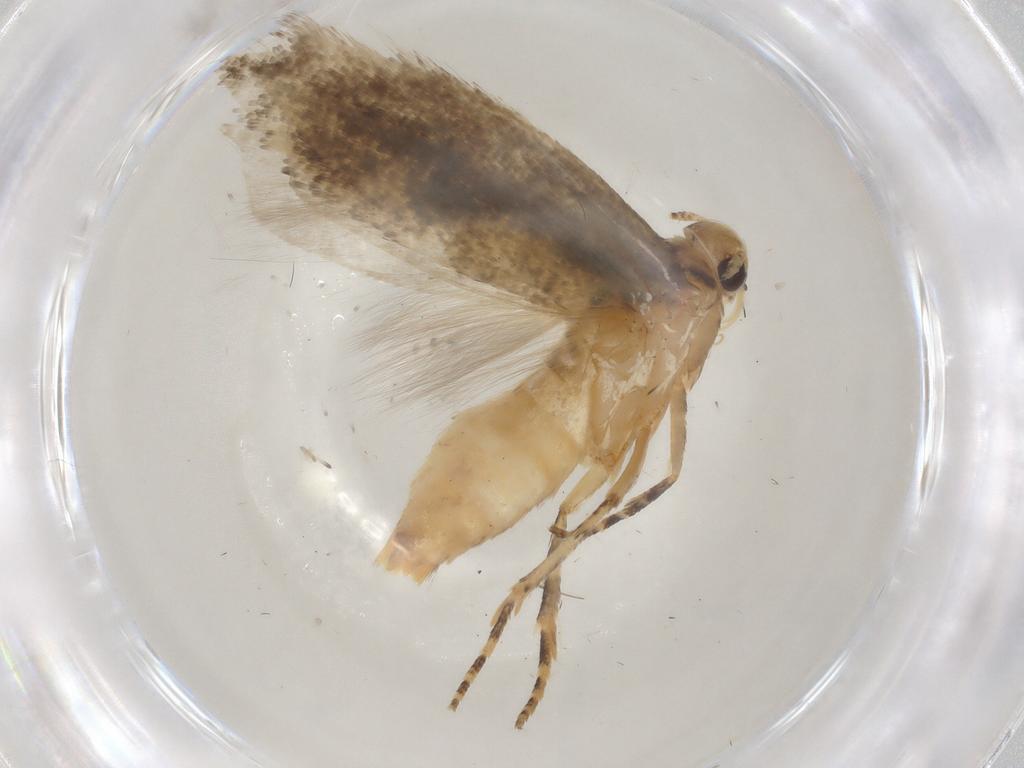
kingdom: Animalia
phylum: Arthropoda
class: Insecta
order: Lepidoptera
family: Gelechiidae
